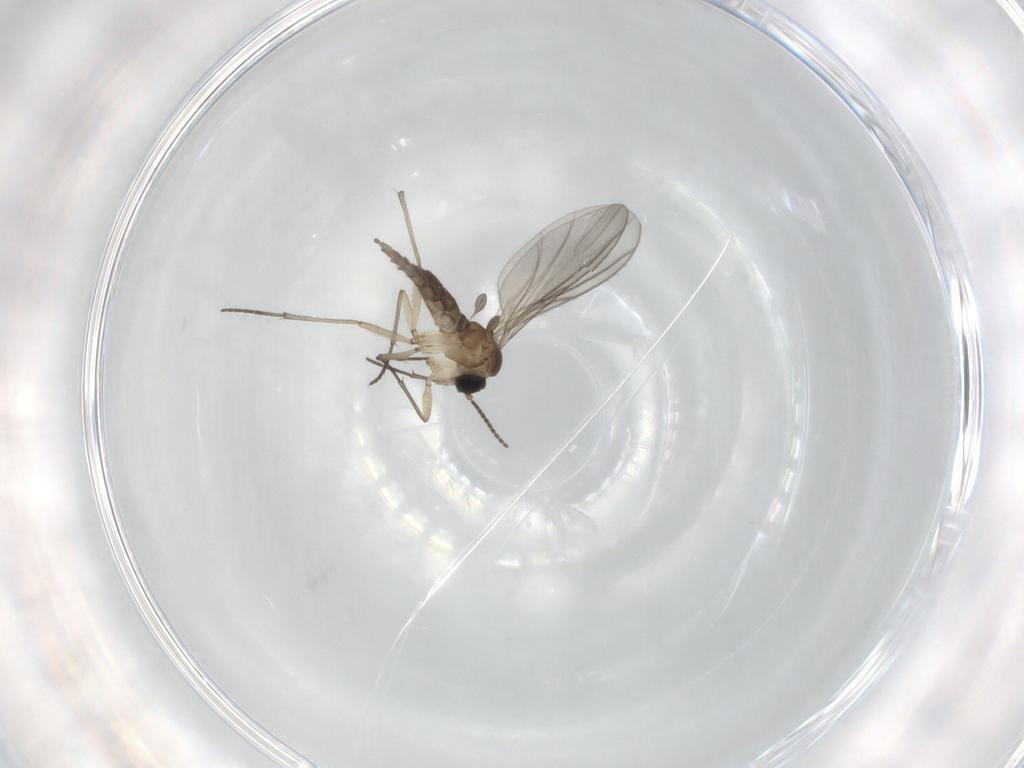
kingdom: Animalia
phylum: Arthropoda
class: Insecta
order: Diptera
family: Sciaridae
